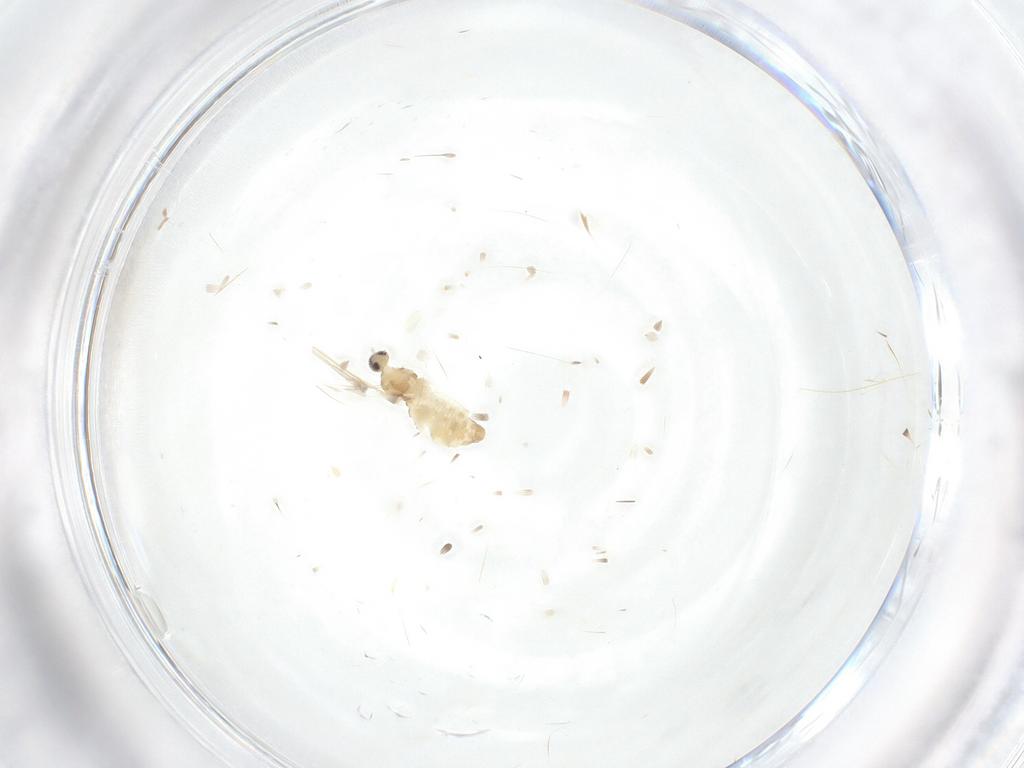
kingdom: Animalia
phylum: Arthropoda
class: Insecta
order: Diptera
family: Cecidomyiidae
